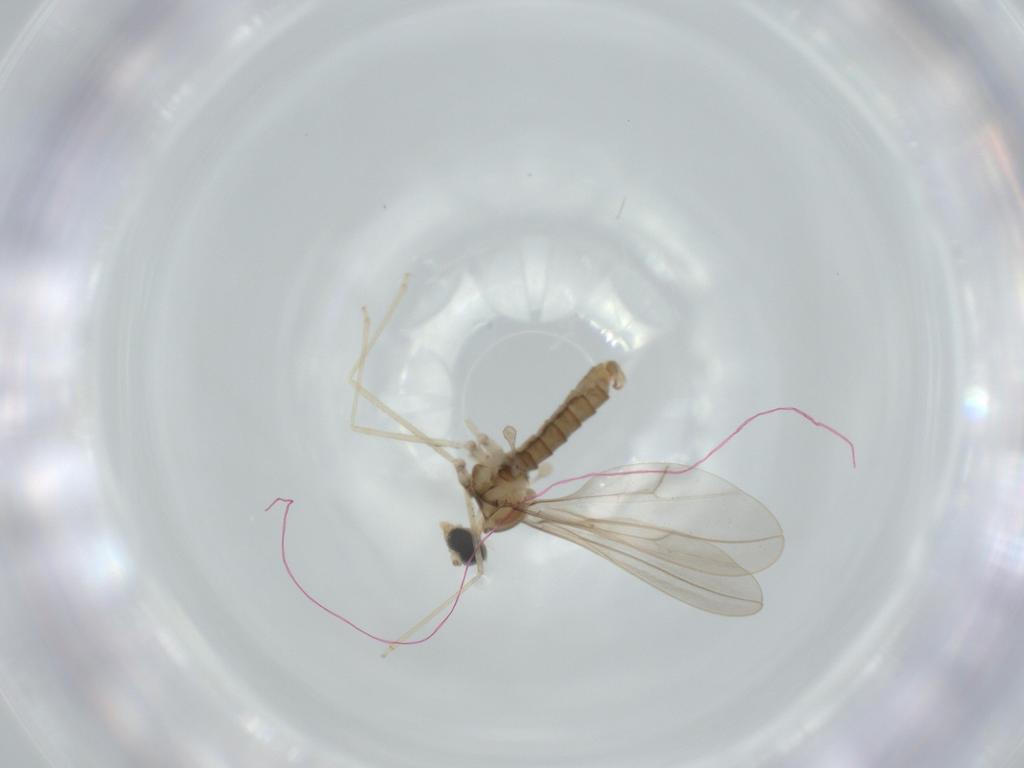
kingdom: Animalia
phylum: Arthropoda
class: Insecta
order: Diptera
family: Cecidomyiidae
